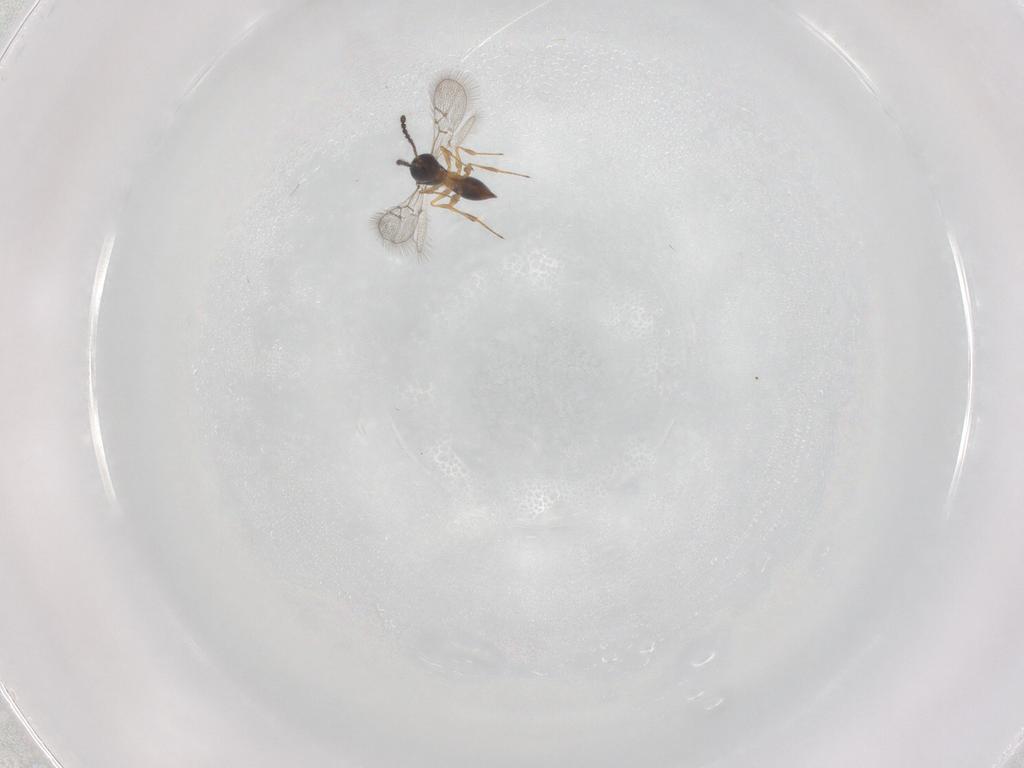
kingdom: Animalia
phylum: Arthropoda
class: Insecta
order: Hymenoptera
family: Figitidae
